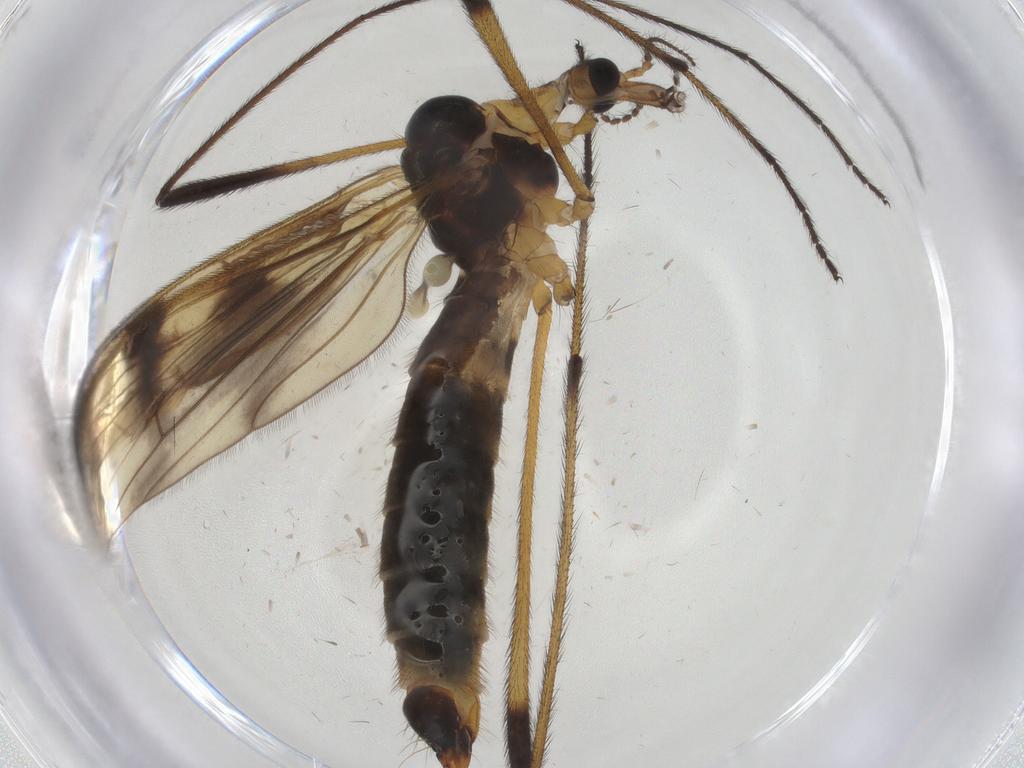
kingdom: Animalia
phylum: Arthropoda
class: Insecta
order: Diptera
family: Limoniidae
